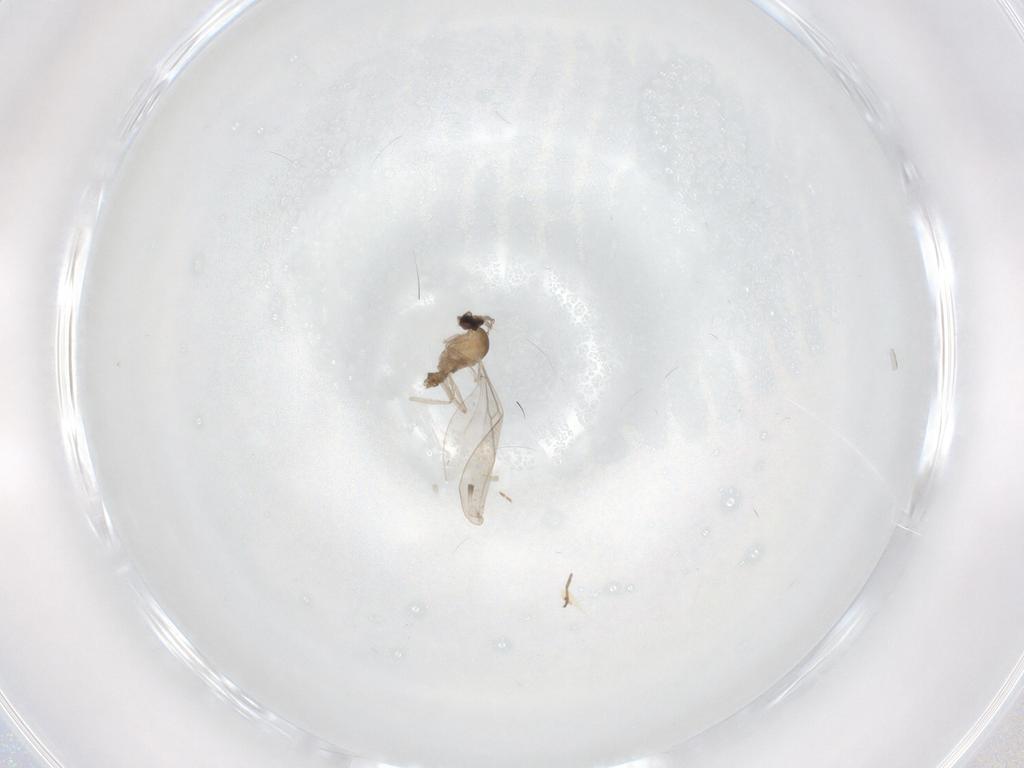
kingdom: Animalia
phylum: Arthropoda
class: Insecta
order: Diptera
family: Cecidomyiidae
